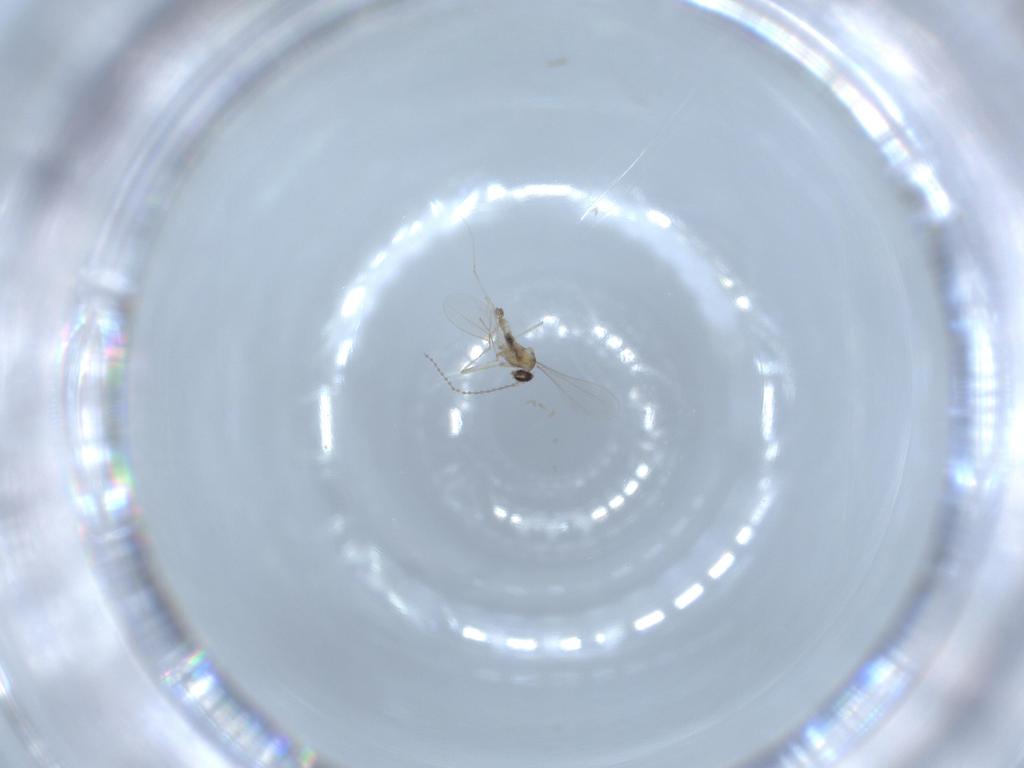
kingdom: Animalia
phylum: Arthropoda
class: Insecta
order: Diptera
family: Cecidomyiidae
